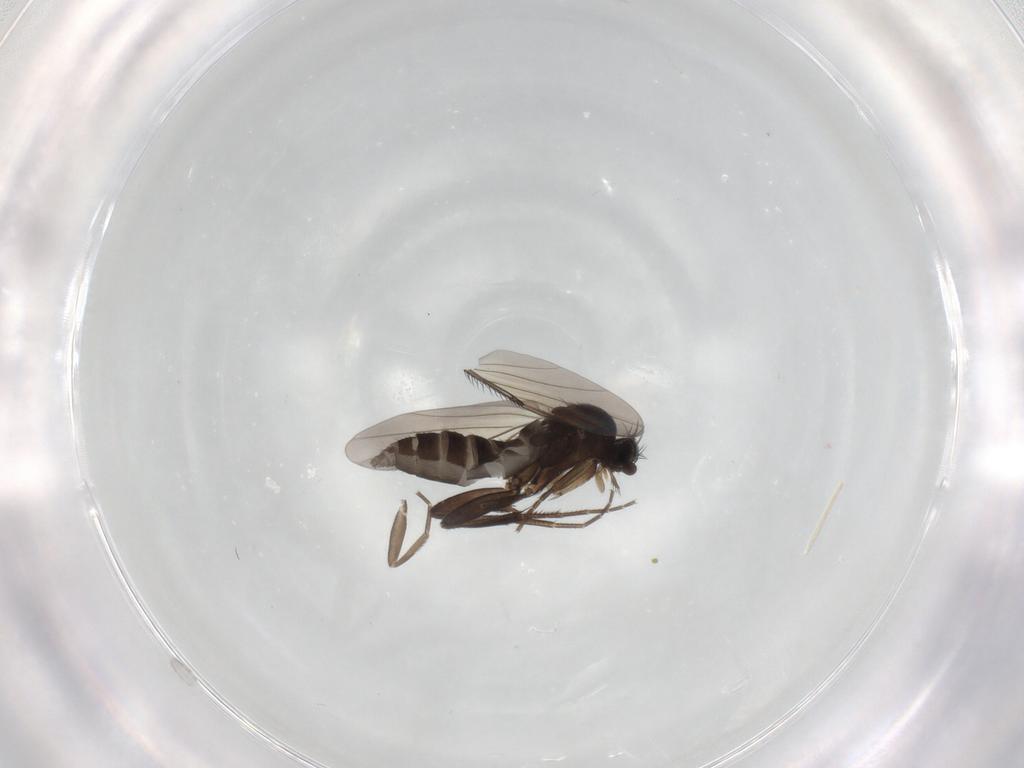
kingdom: Animalia
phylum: Arthropoda
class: Insecta
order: Diptera
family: Phoridae
